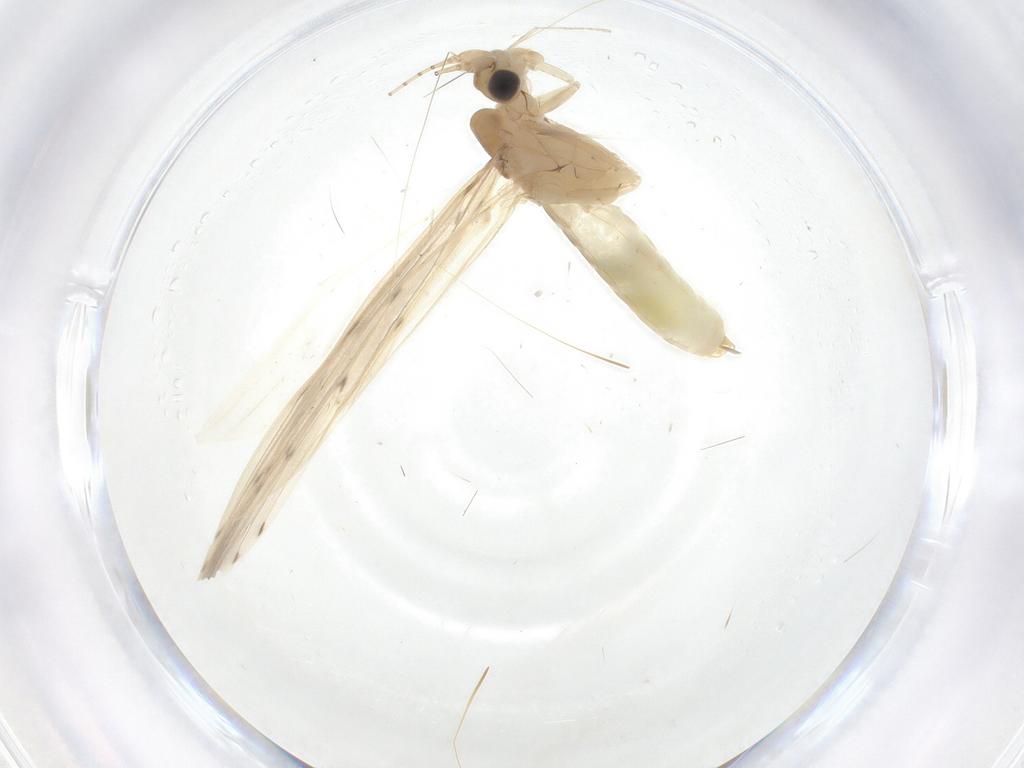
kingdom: Animalia
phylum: Arthropoda
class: Insecta
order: Trichoptera
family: Leptoceridae
